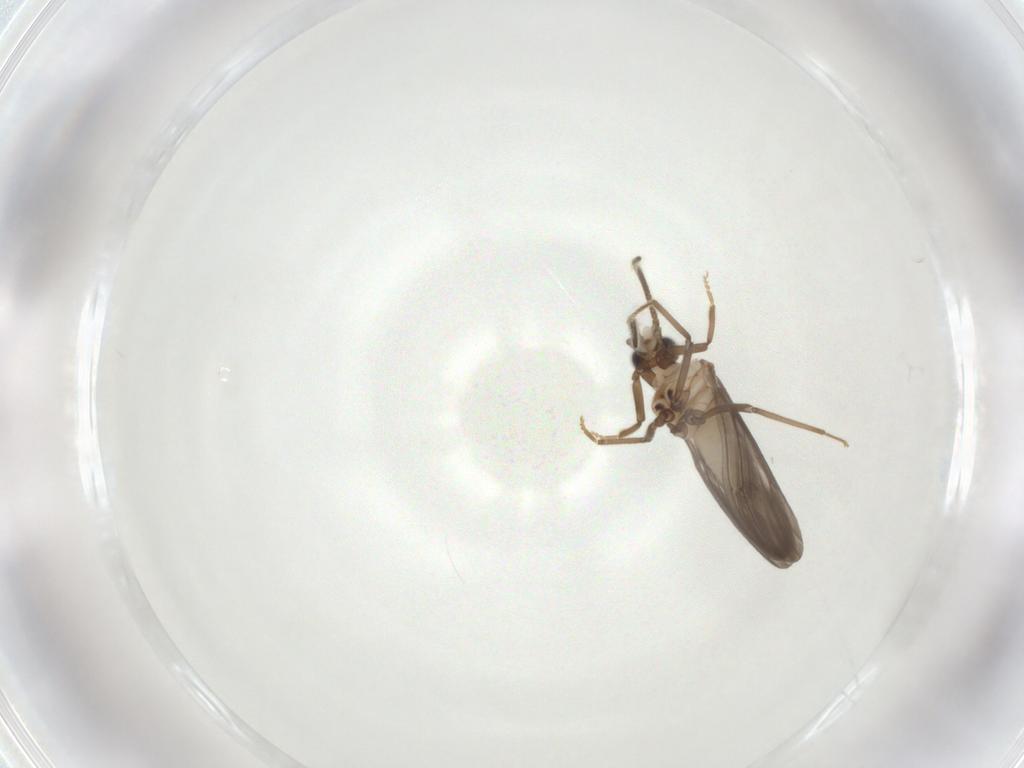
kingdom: Animalia
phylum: Arthropoda
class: Insecta
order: Neuroptera
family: Coniopterygidae
